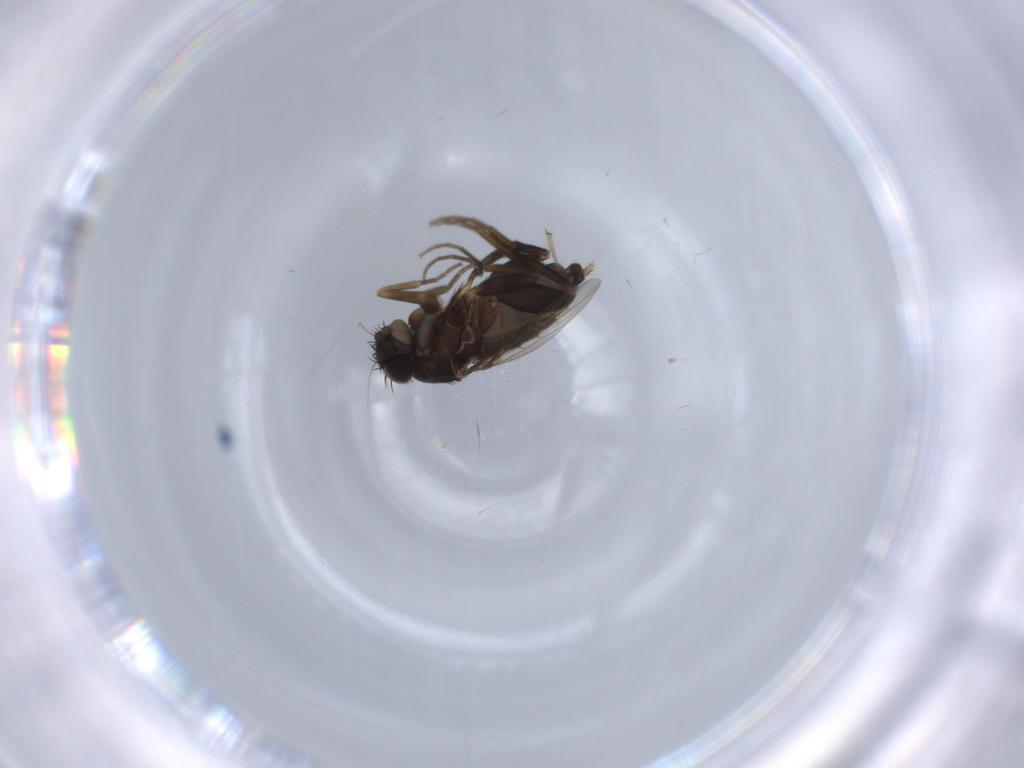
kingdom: Animalia
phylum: Arthropoda
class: Insecta
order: Diptera
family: Phoridae
